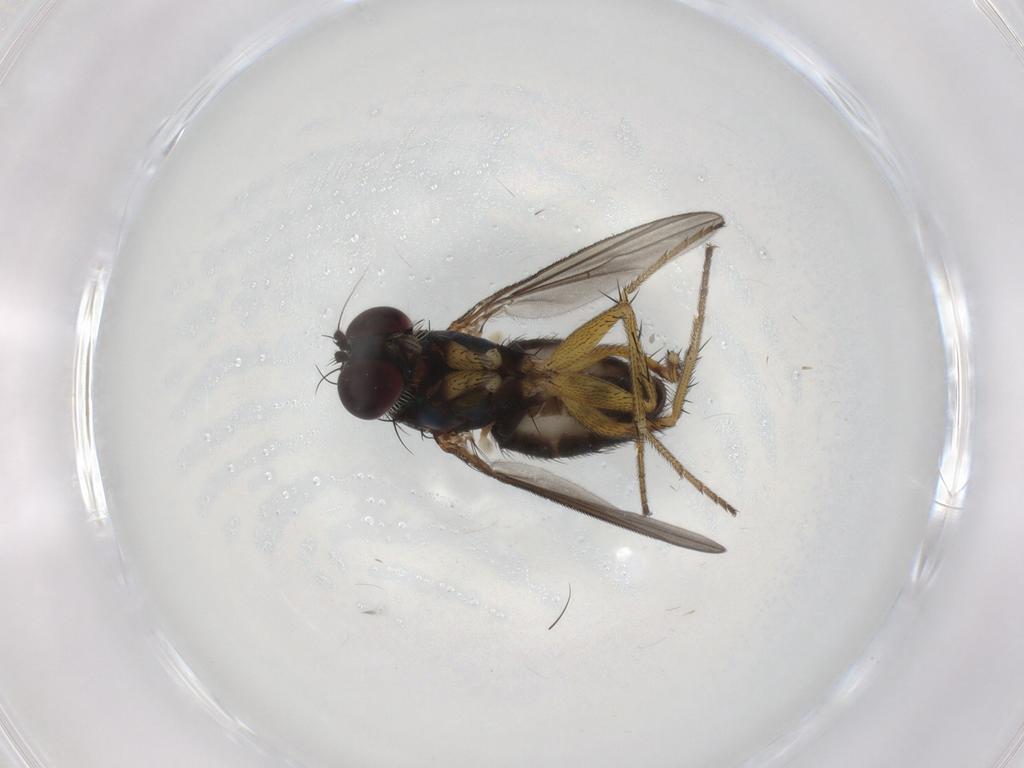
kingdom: Animalia
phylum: Arthropoda
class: Insecta
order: Diptera
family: Dolichopodidae
